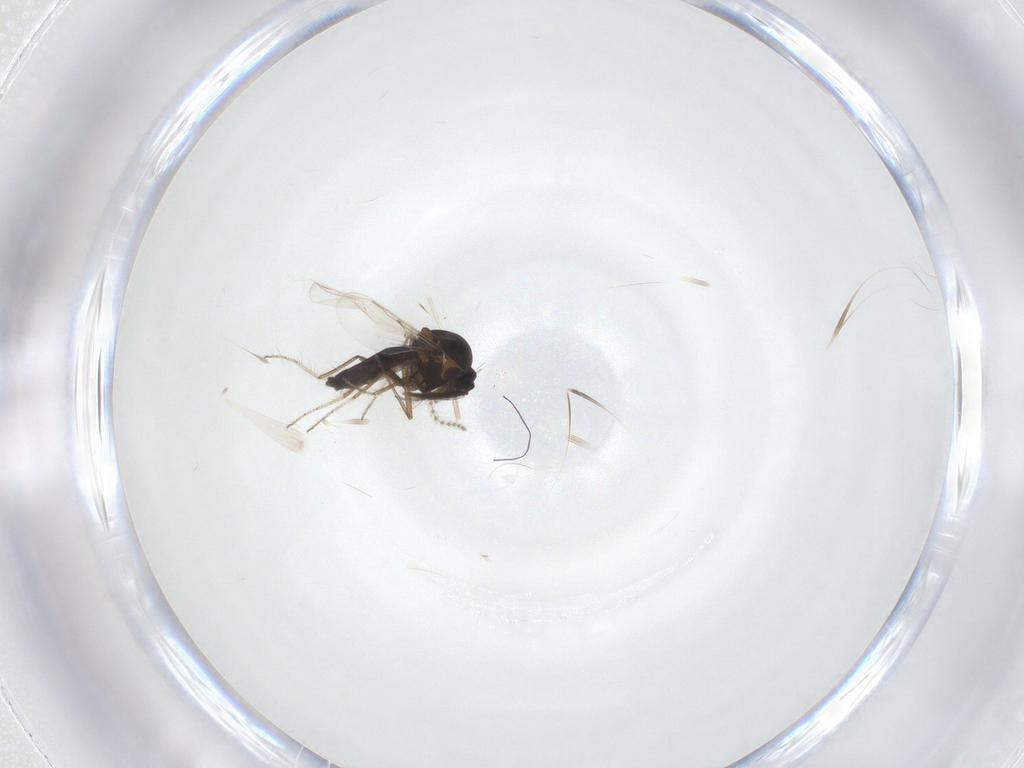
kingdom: Animalia
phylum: Arthropoda
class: Insecta
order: Diptera
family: Ceratopogonidae
